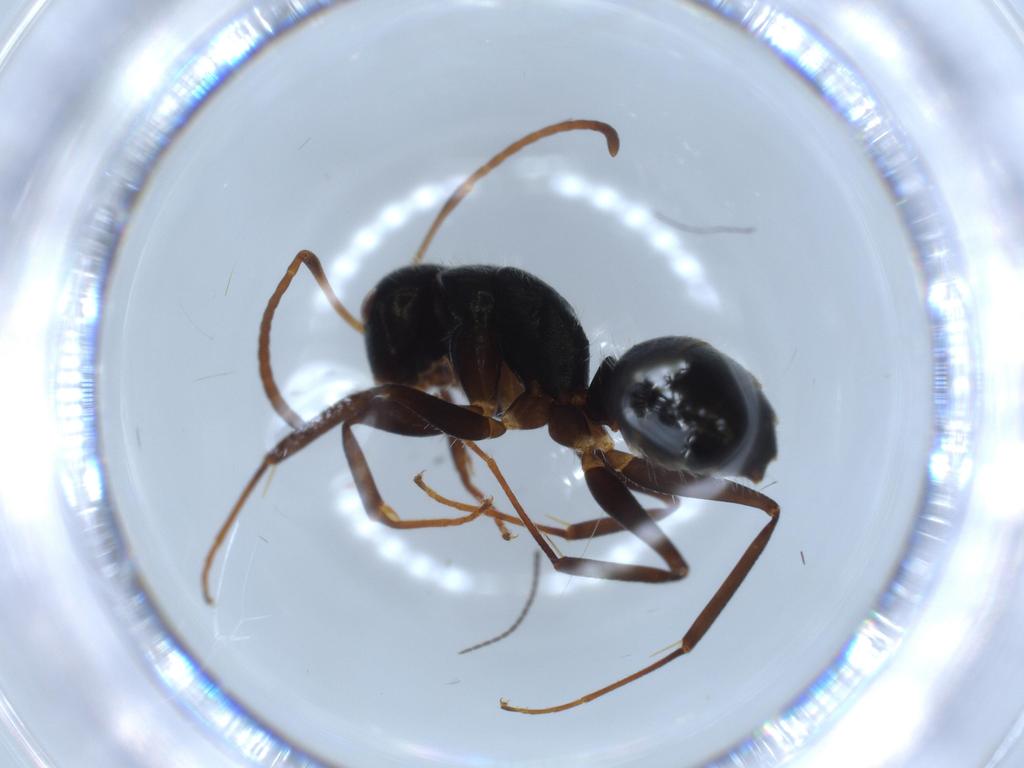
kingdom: Animalia
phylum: Arthropoda
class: Insecta
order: Hymenoptera
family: Formicidae
